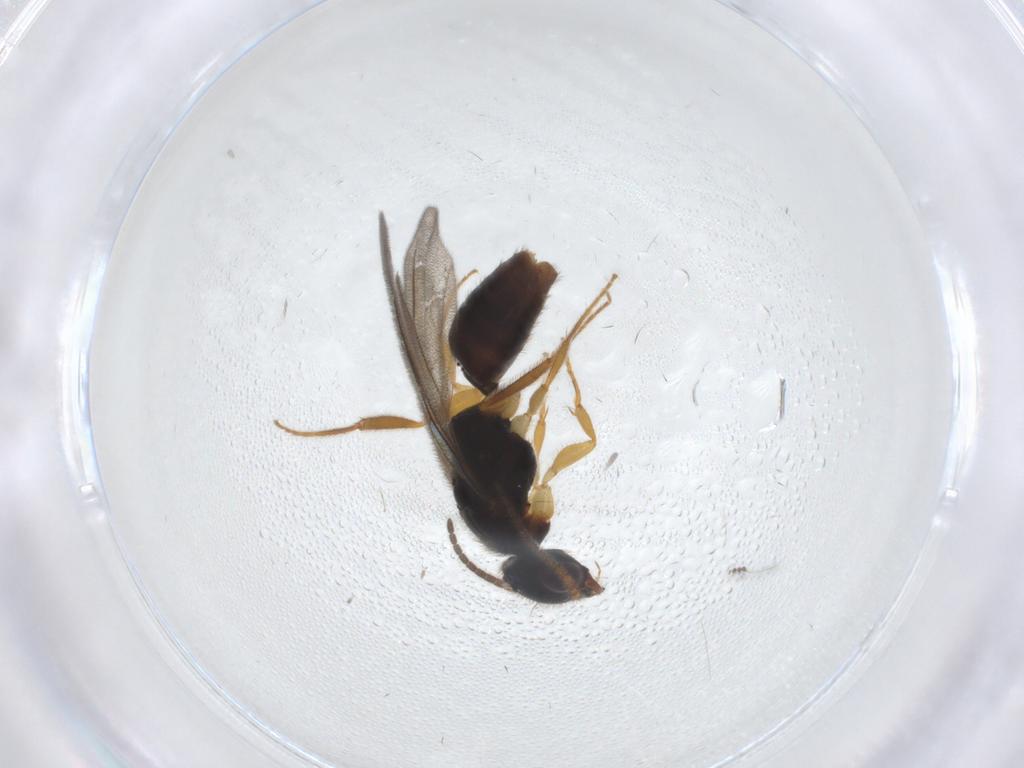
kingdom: Animalia
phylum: Arthropoda
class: Insecta
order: Hymenoptera
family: Bethylidae
